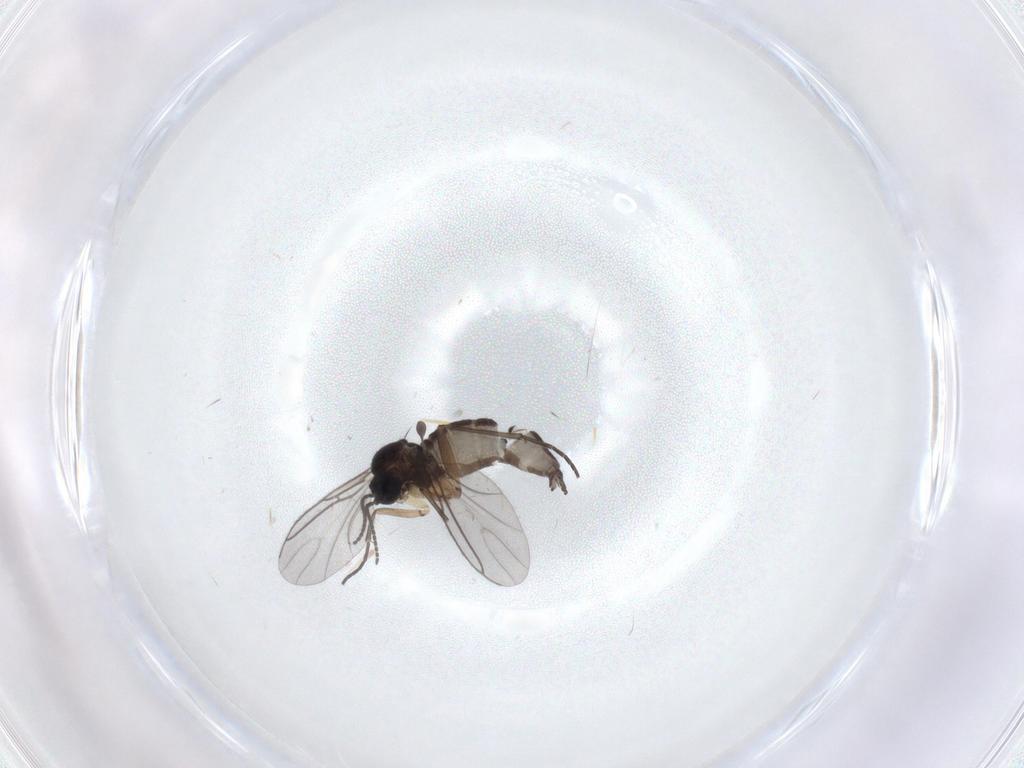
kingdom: Animalia
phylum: Arthropoda
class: Insecta
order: Diptera
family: Sciaridae
